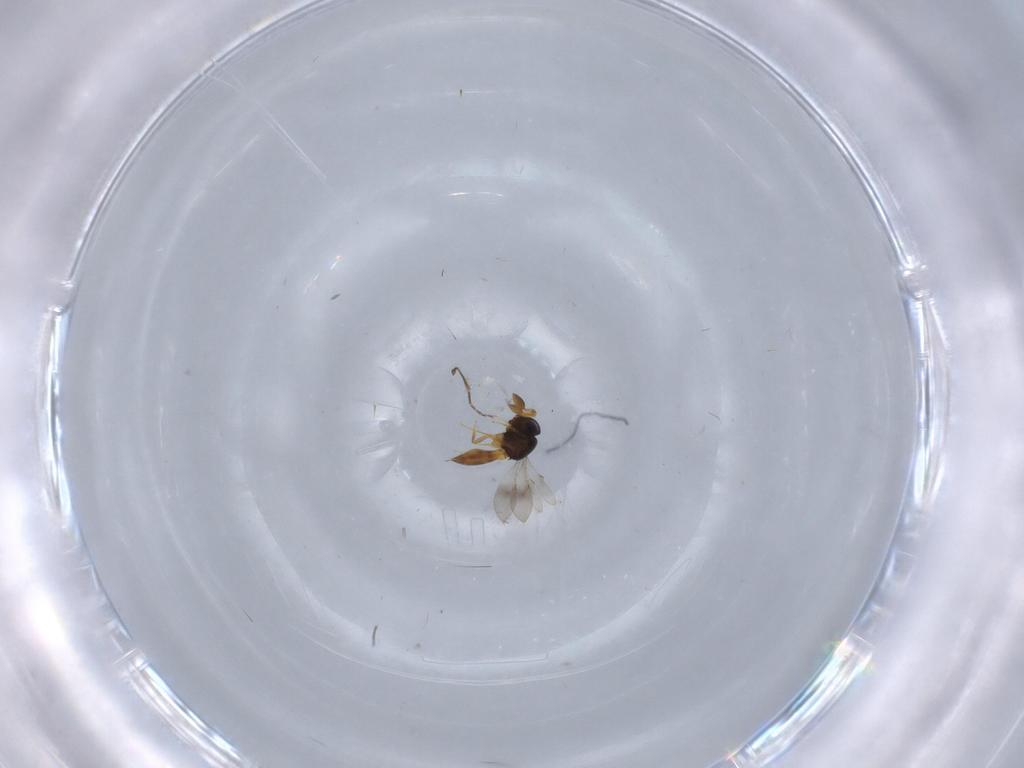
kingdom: Animalia
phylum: Arthropoda
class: Insecta
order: Hymenoptera
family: Scelionidae
